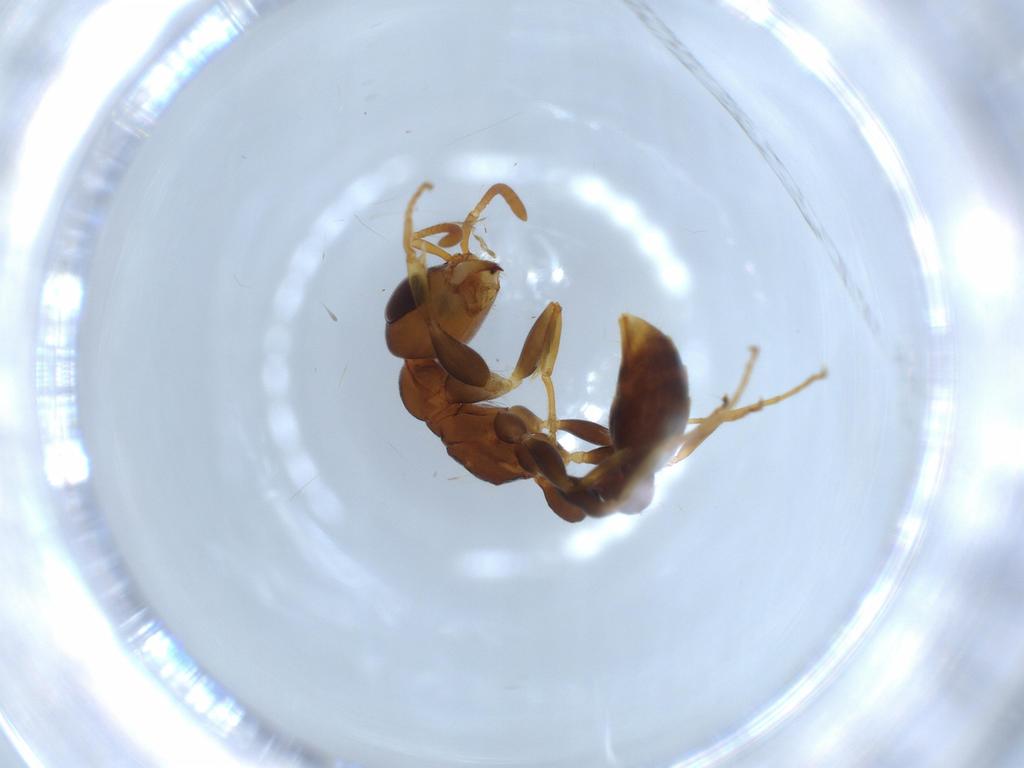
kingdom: Animalia
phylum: Arthropoda
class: Insecta
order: Hymenoptera
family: Formicidae
